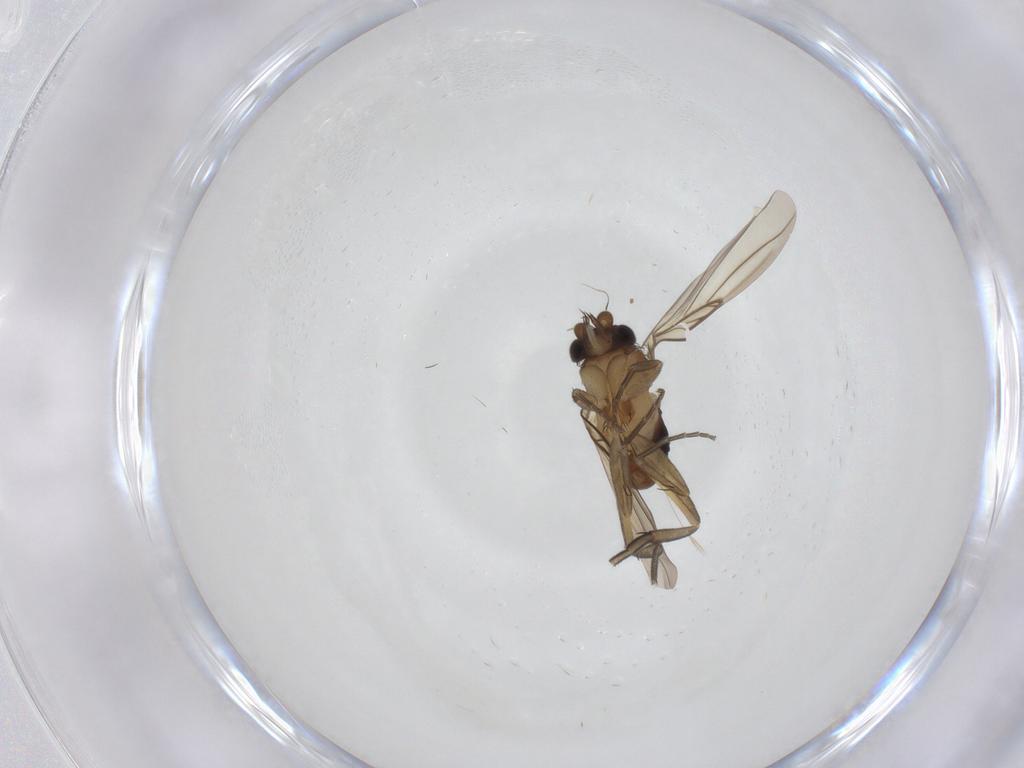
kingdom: Animalia
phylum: Arthropoda
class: Insecta
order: Diptera
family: Phoridae
